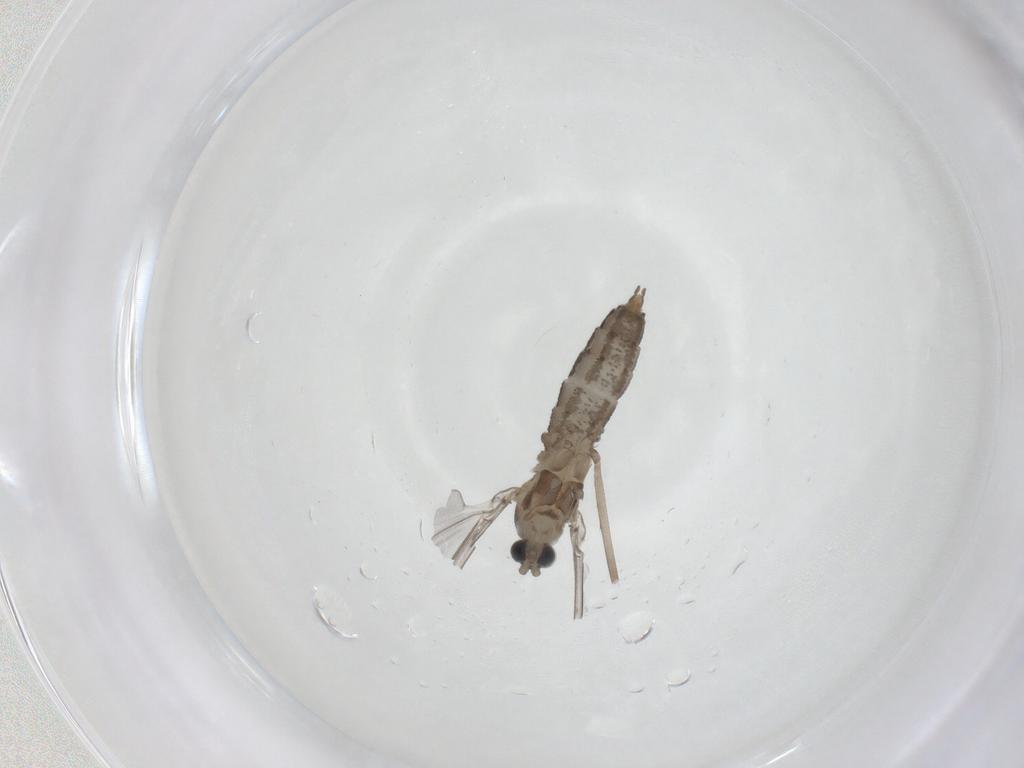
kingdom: Animalia
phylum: Arthropoda
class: Insecta
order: Diptera
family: Cecidomyiidae
